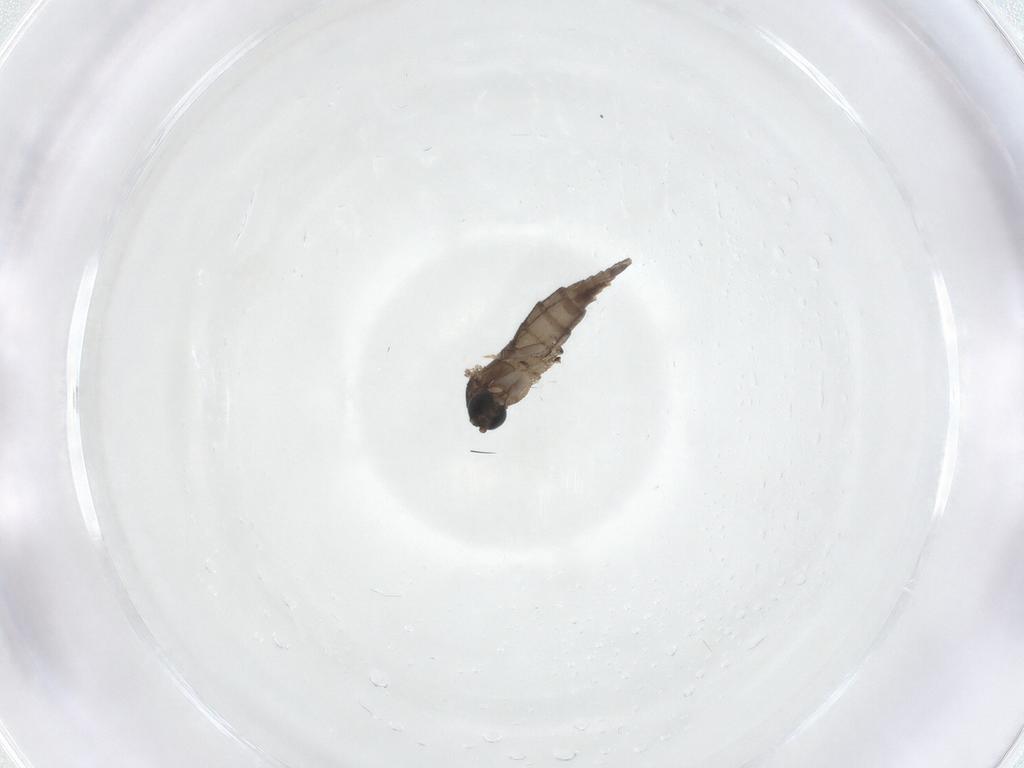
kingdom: Animalia
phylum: Arthropoda
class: Insecta
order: Diptera
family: Sciaridae
